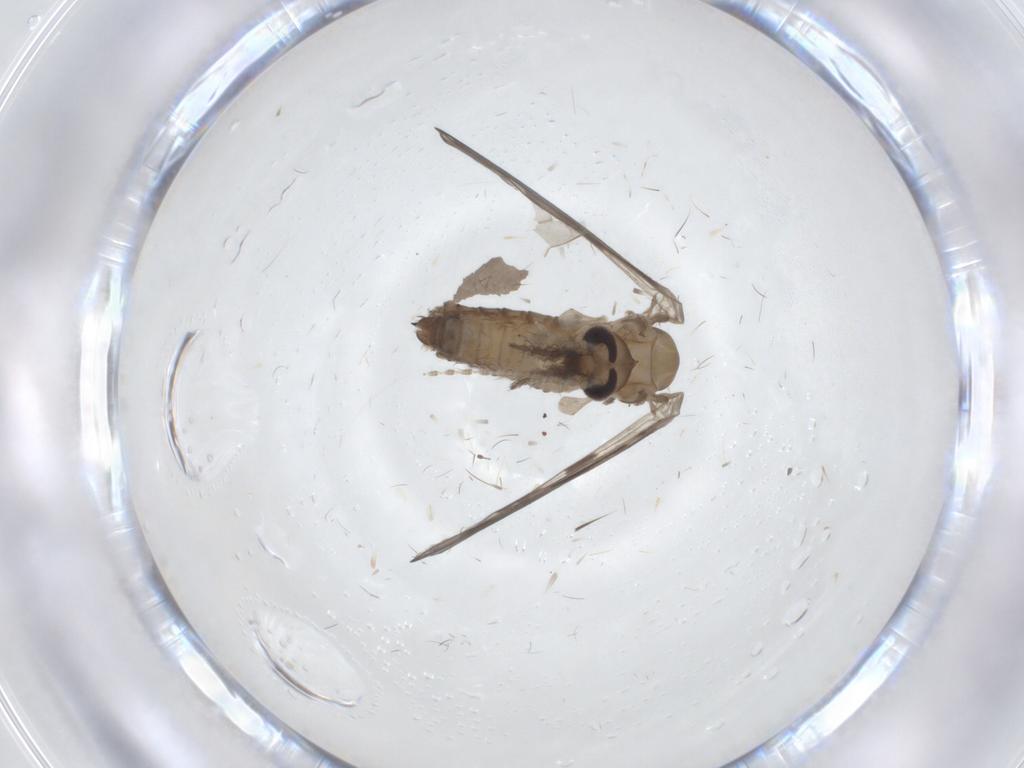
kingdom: Animalia
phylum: Arthropoda
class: Insecta
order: Diptera
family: Psychodidae
